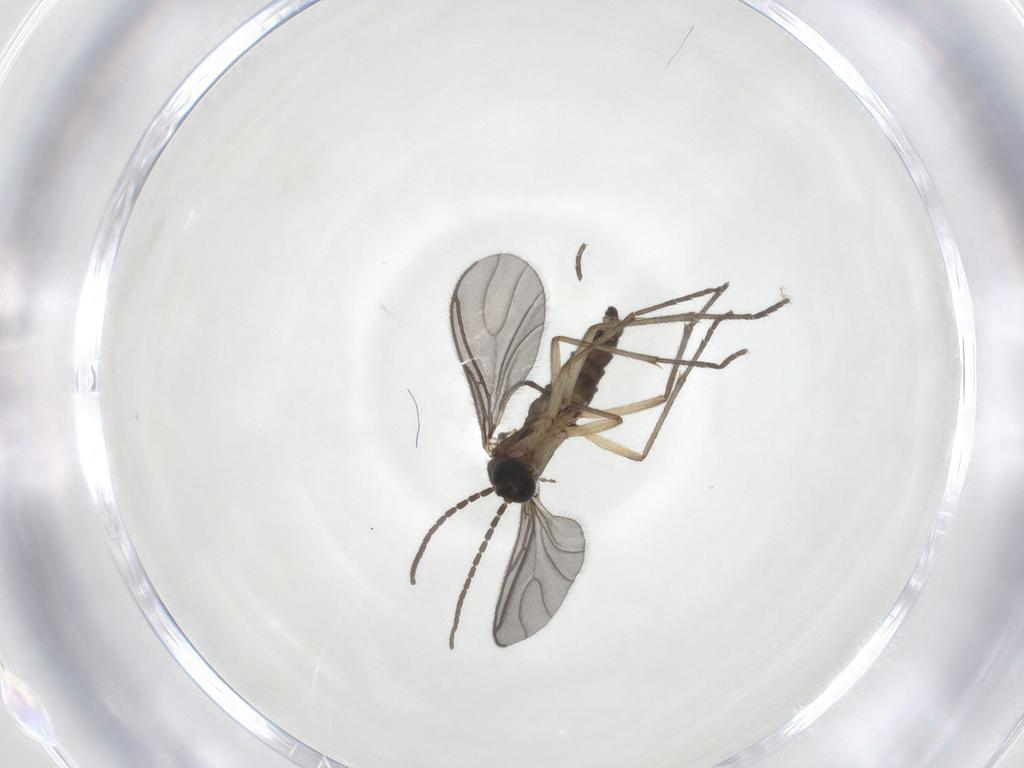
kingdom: Animalia
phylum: Arthropoda
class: Insecta
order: Diptera
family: Sciaridae
